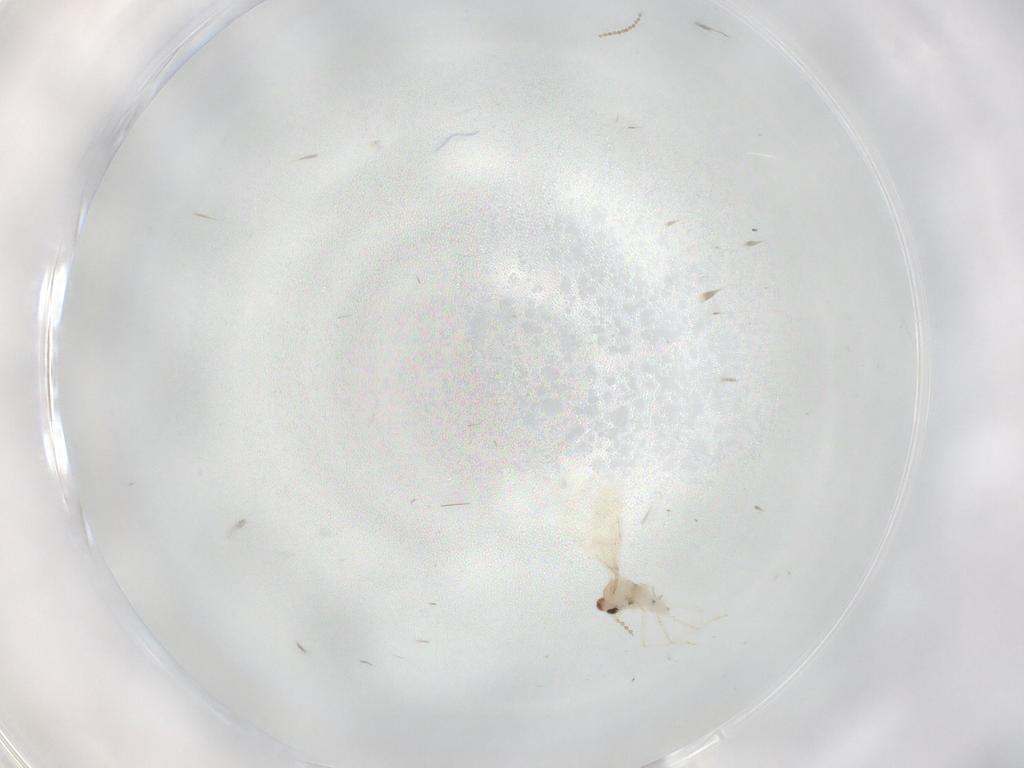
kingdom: Animalia
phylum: Arthropoda
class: Insecta
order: Diptera
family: Cecidomyiidae
